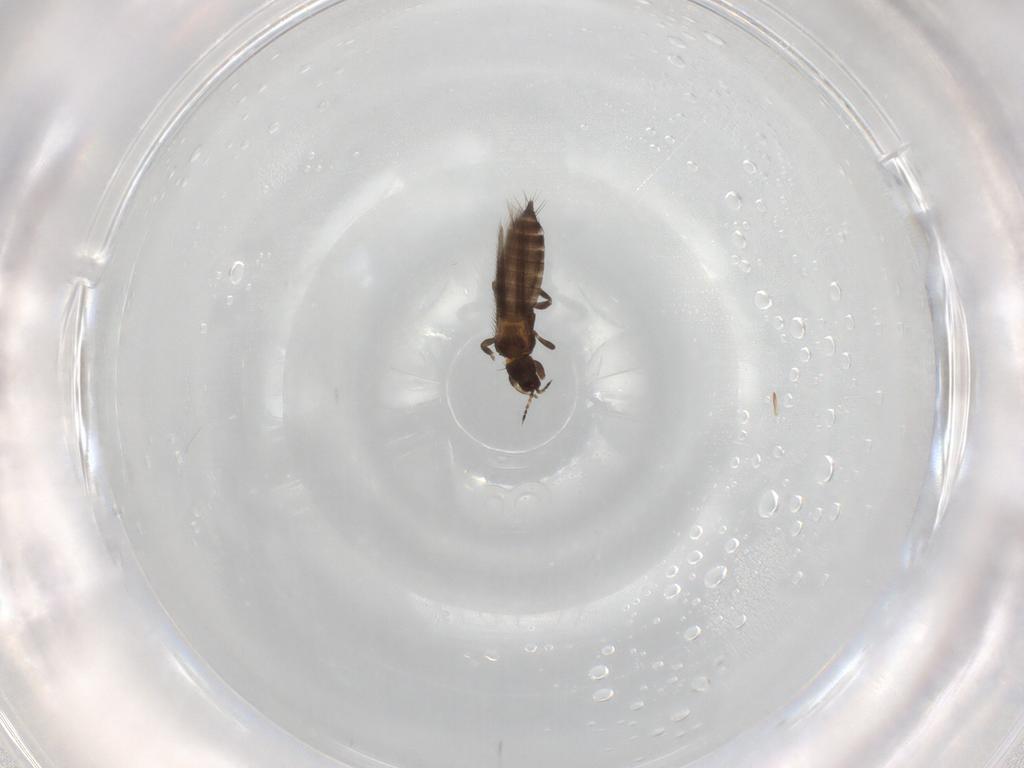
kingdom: Animalia
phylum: Arthropoda
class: Insecta
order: Thysanoptera
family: Thripidae
